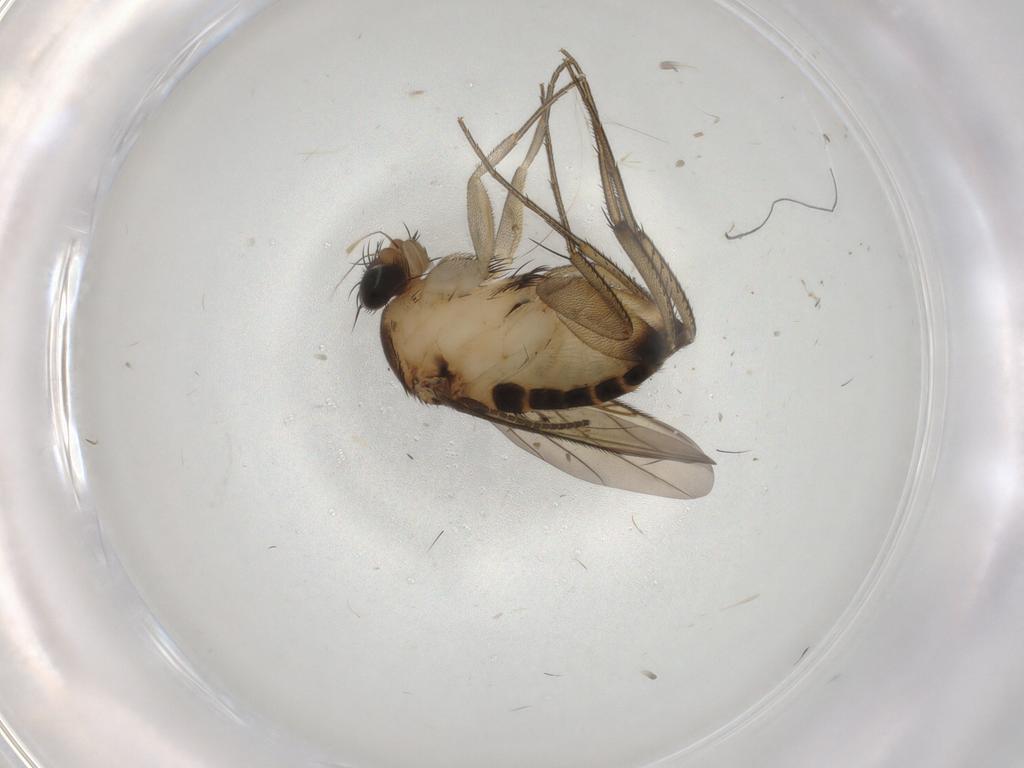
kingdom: Animalia
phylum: Arthropoda
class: Insecta
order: Diptera
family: Phoridae
